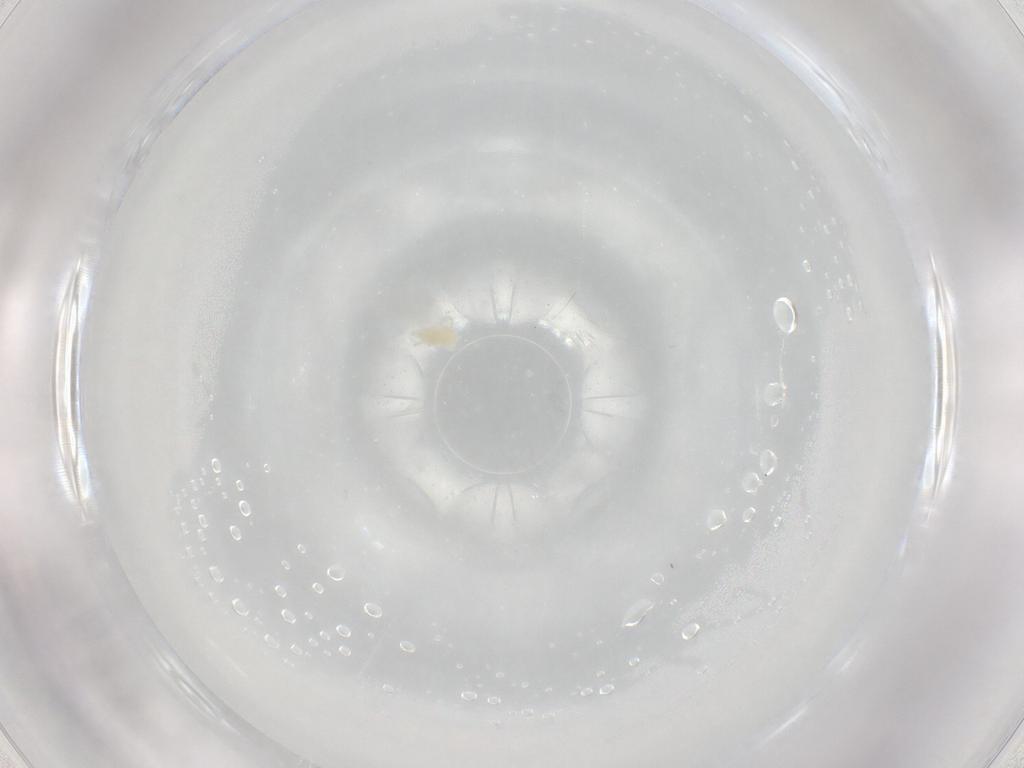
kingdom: Animalia
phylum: Arthropoda
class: Arachnida
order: Trombidiformes
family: Eupodidae
